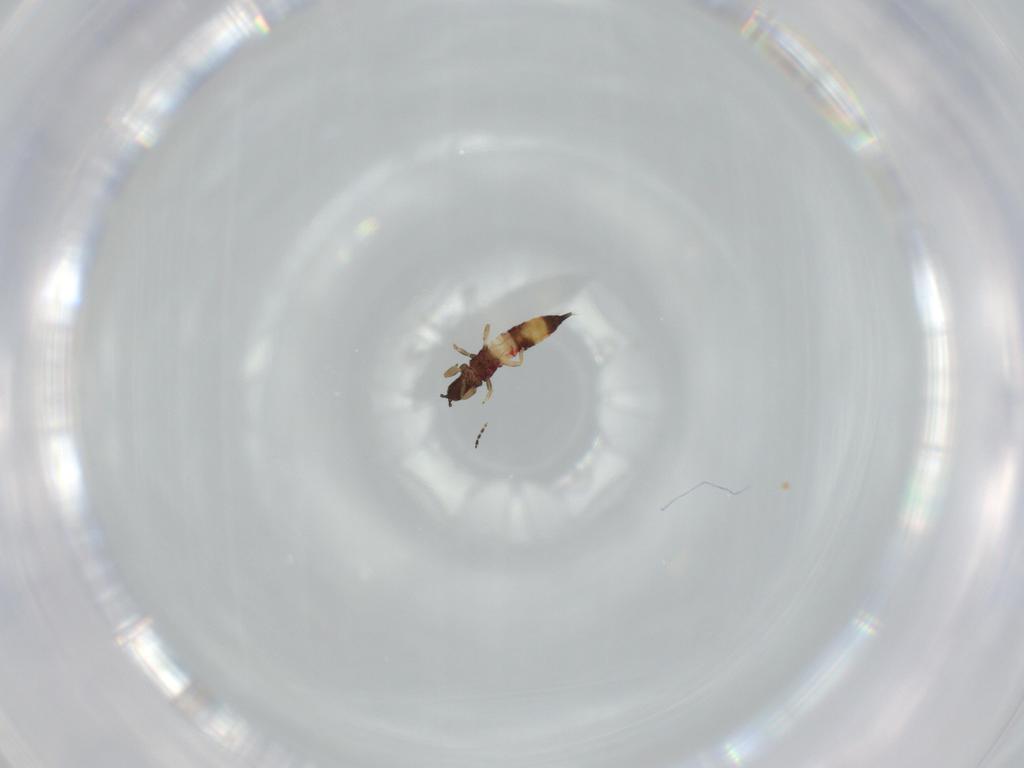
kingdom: Animalia
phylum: Arthropoda
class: Insecta
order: Thysanoptera
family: Phlaeothripidae
